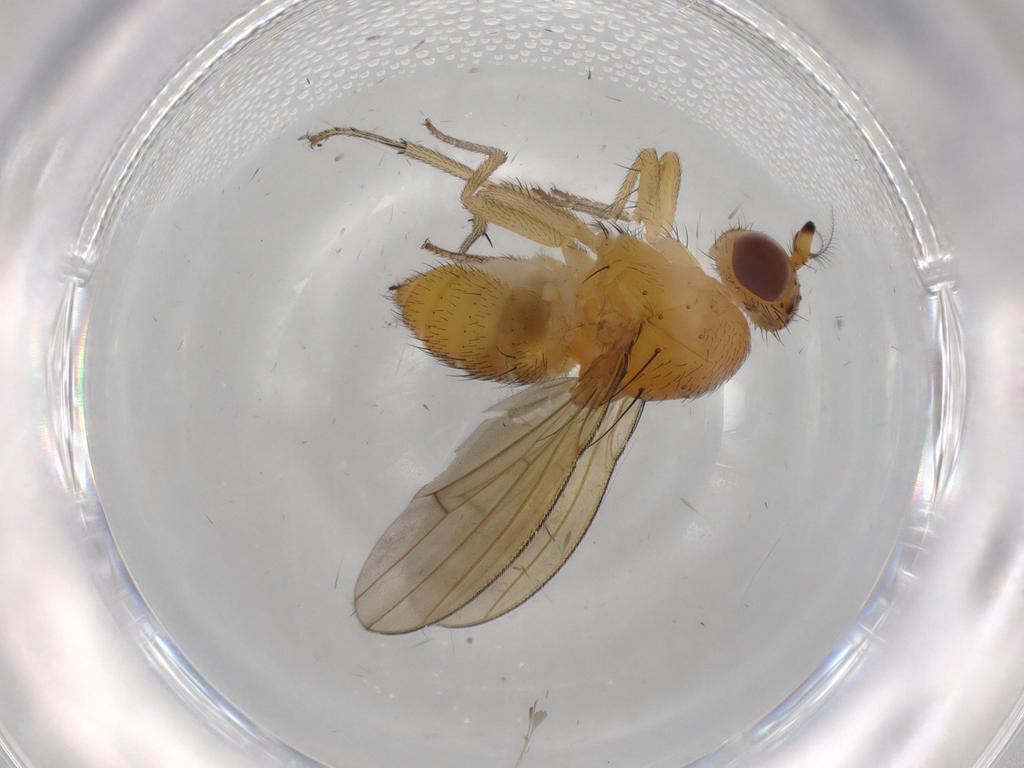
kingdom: Animalia
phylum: Arthropoda
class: Insecta
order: Diptera
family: Lauxaniidae
